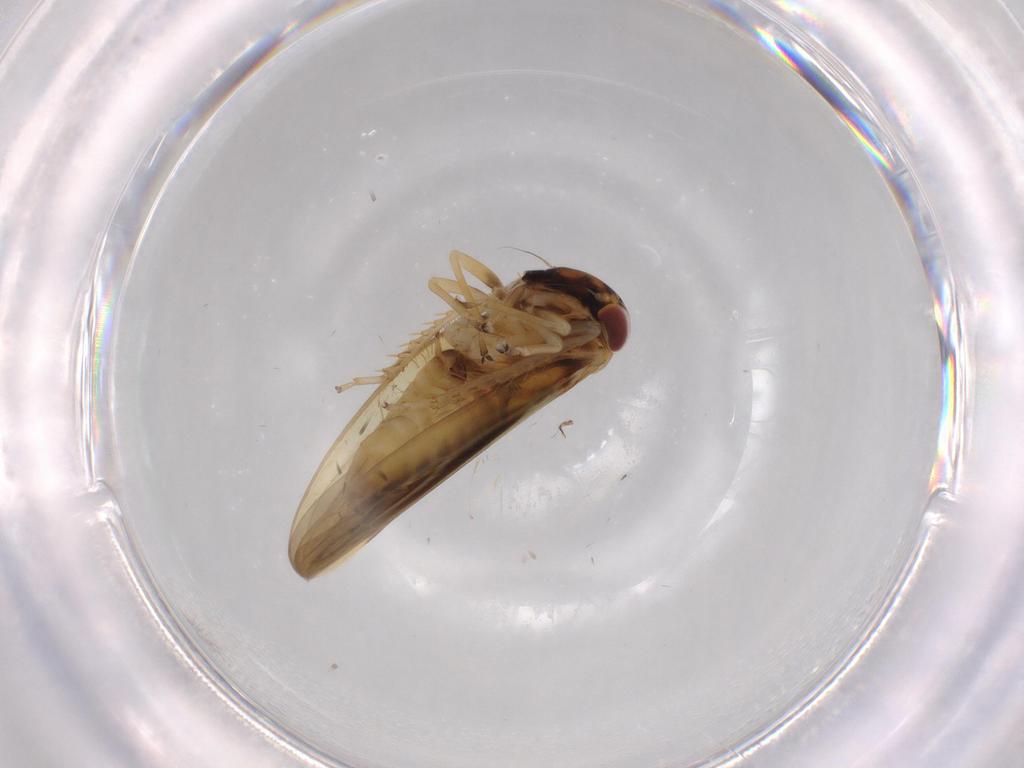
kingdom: Animalia
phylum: Arthropoda
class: Insecta
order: Hemiptera
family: Cicadellidae
